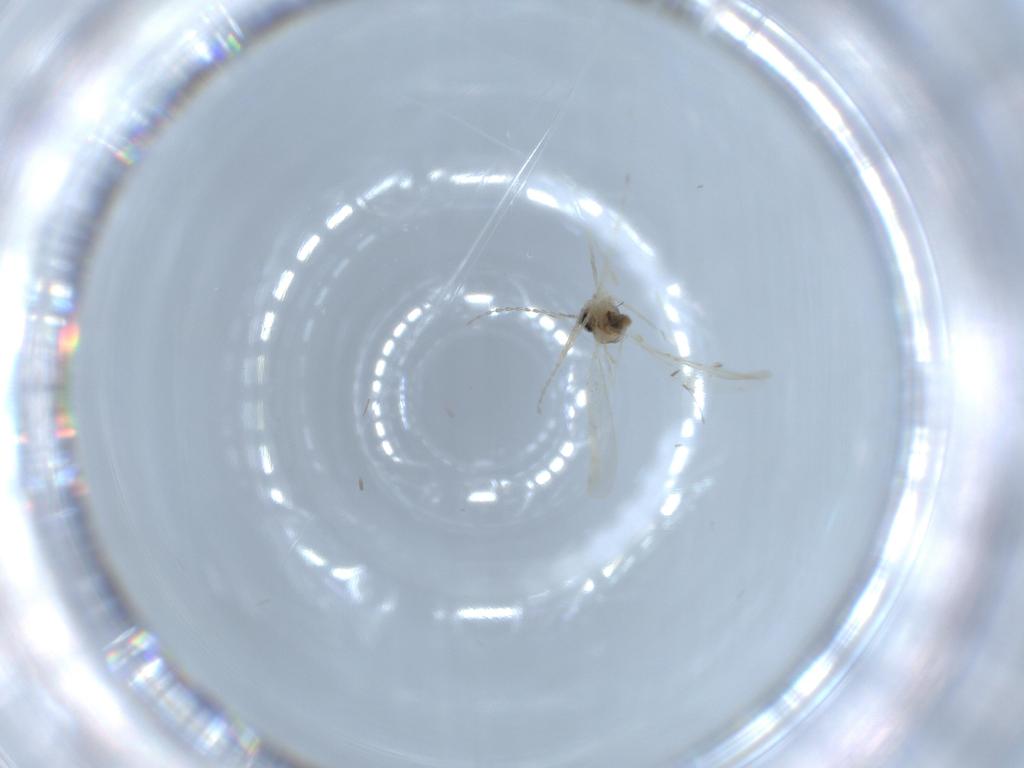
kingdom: Animalia
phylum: Arthropoda
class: Insecta
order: Diptera
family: Cecidomyiidae
